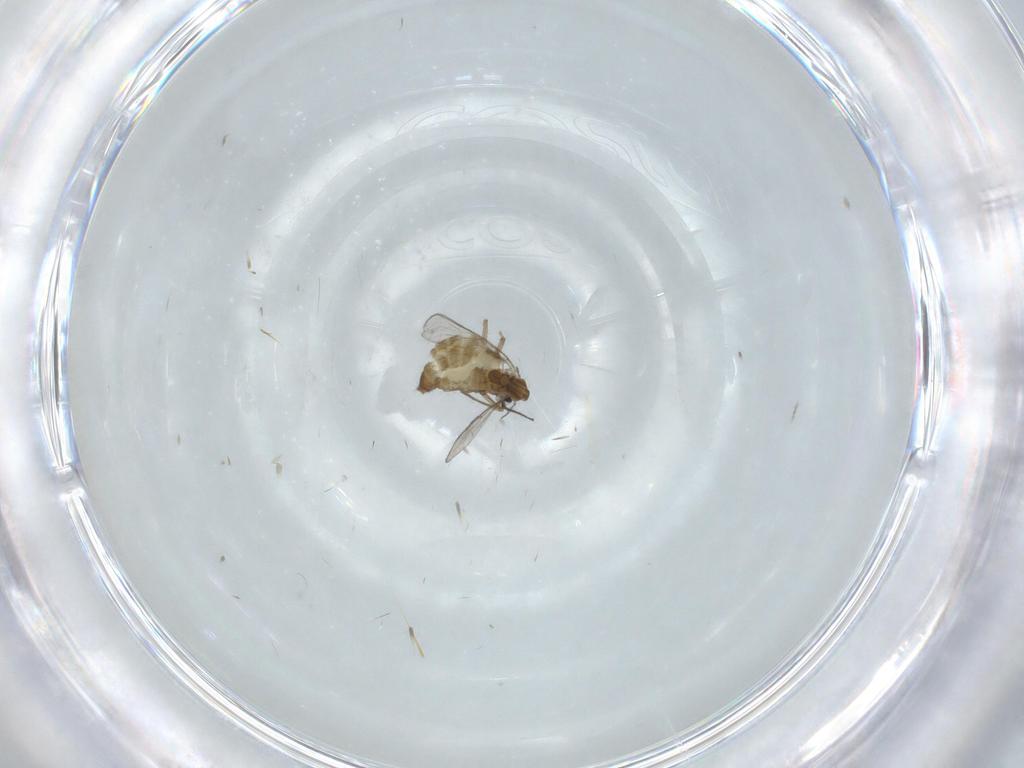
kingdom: Animalia
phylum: Arthropoda
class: Insecta
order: Diptera
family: Chironomidae
